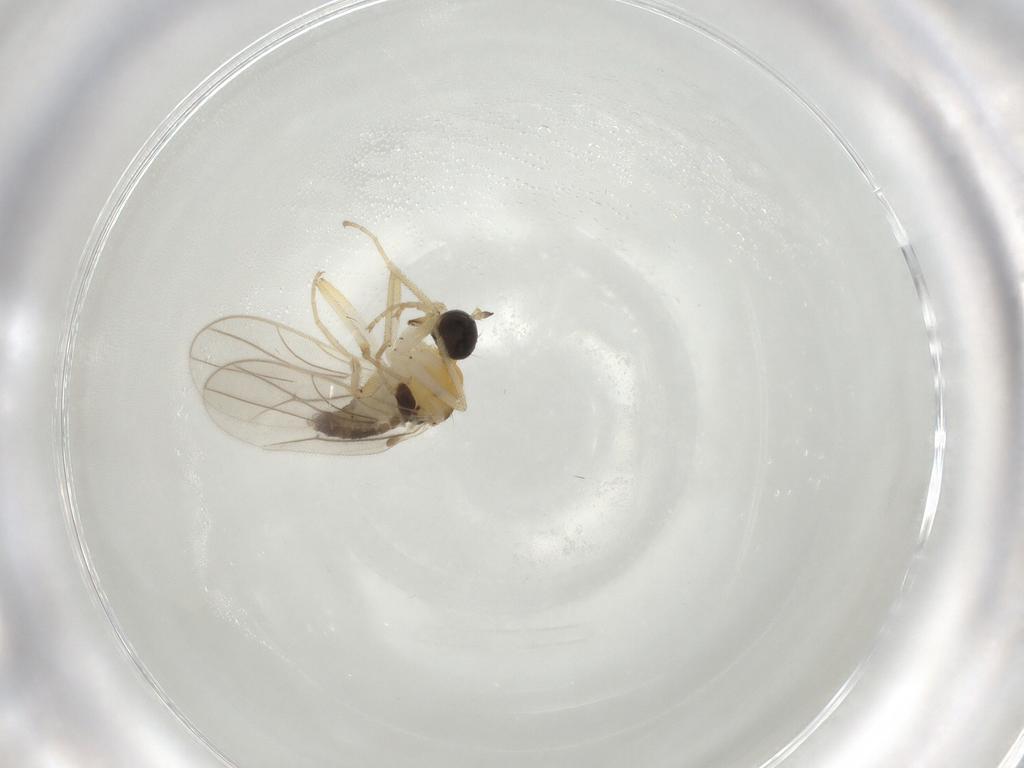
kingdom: Animalia
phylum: Arthropoda
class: Insecta
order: Diptera
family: Hybotidae
